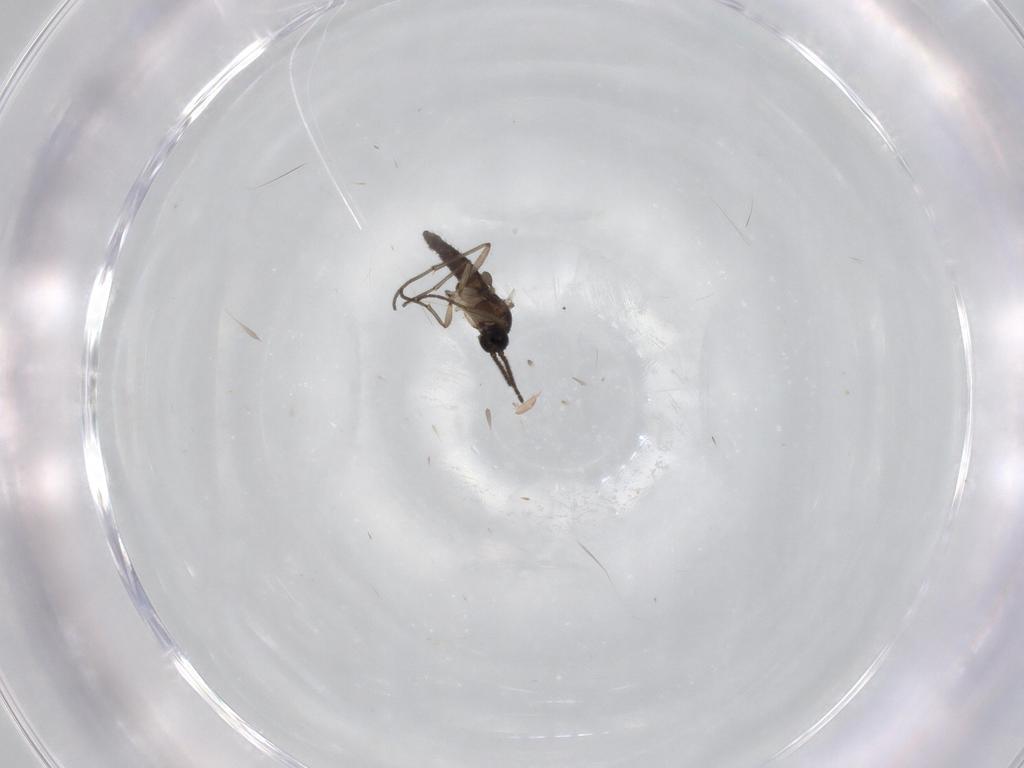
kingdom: Animalia
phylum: Arthropoda
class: Insecta
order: Diptera
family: Sciaridae
